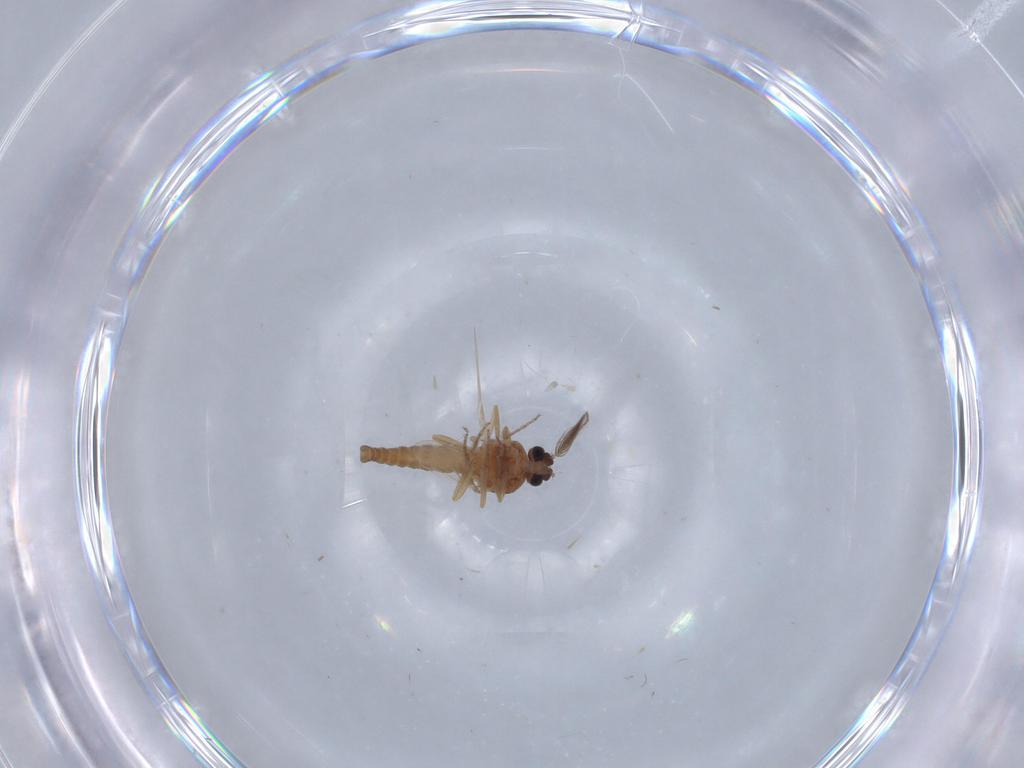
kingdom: Animalia
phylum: Arthropoda
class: Insecta
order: Diptera
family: Ceratopogonidae
